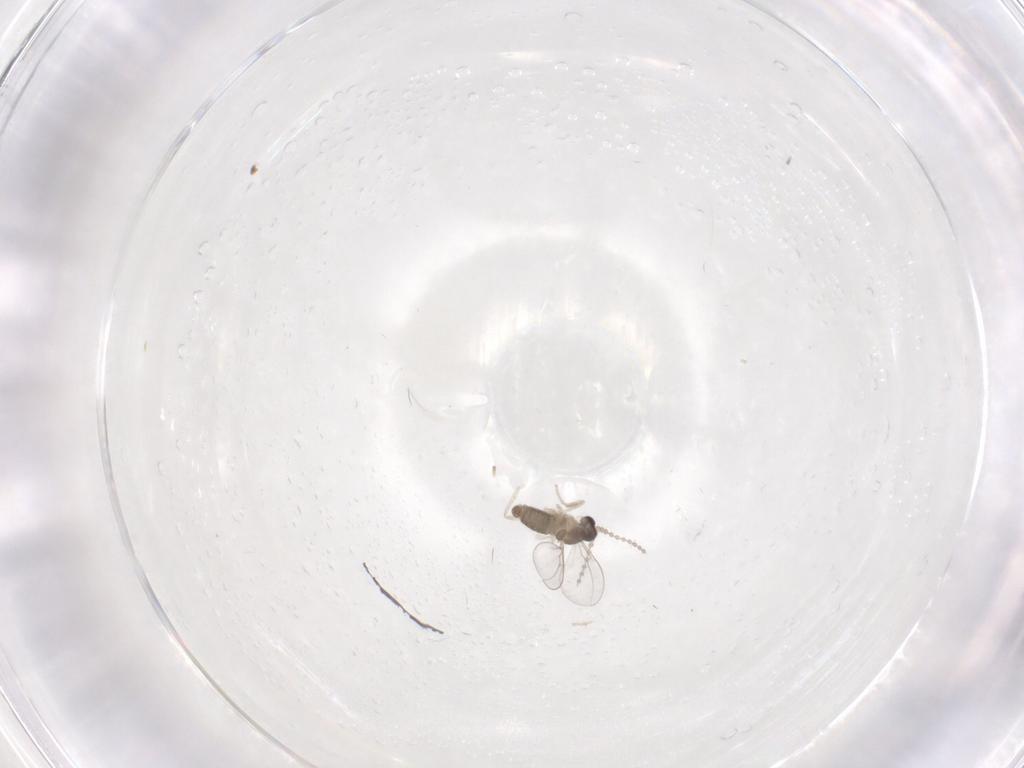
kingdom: Animalia
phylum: Arthropoda
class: Insecta
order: Diptera
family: Cecidomyiidae
